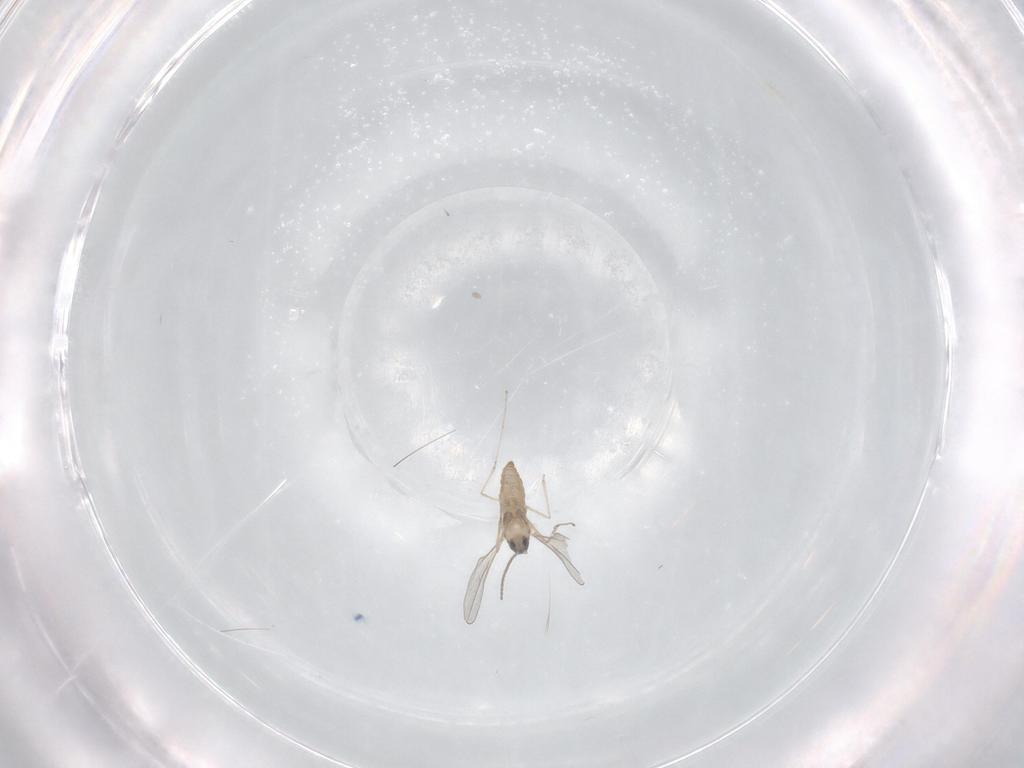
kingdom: Animalia
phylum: Arthropoda
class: Insecta
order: Diptera
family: Cecidomyiidae
